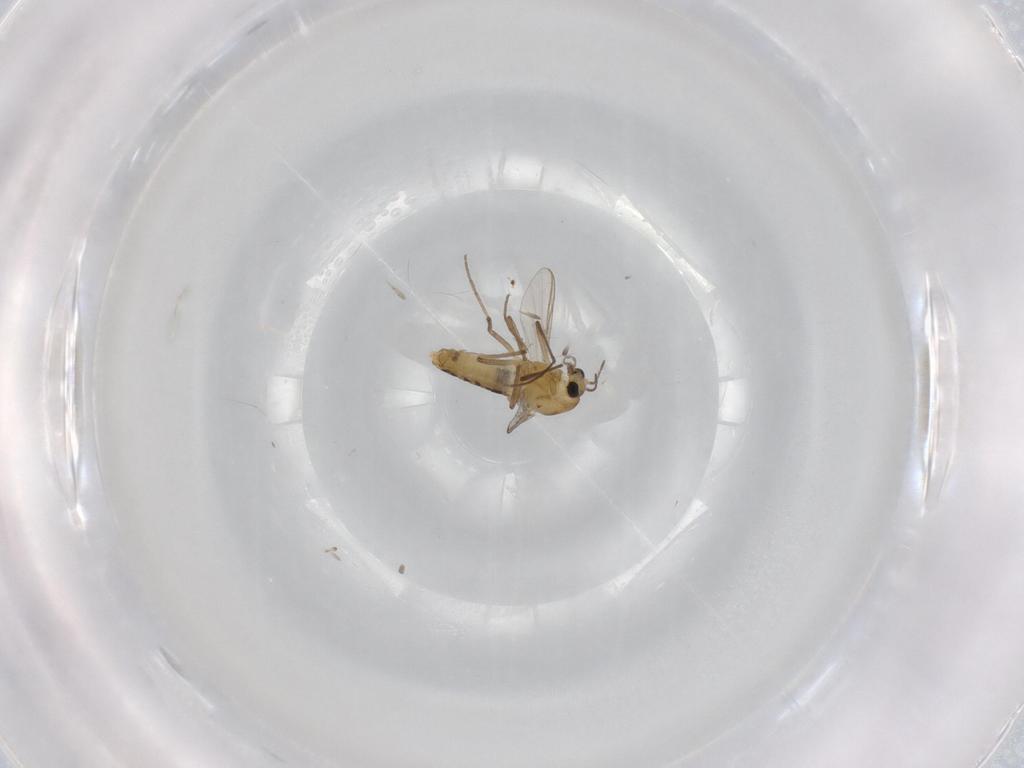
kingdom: Animalia
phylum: Arthropoda
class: Insecta
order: Diptera
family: Chironomidae
